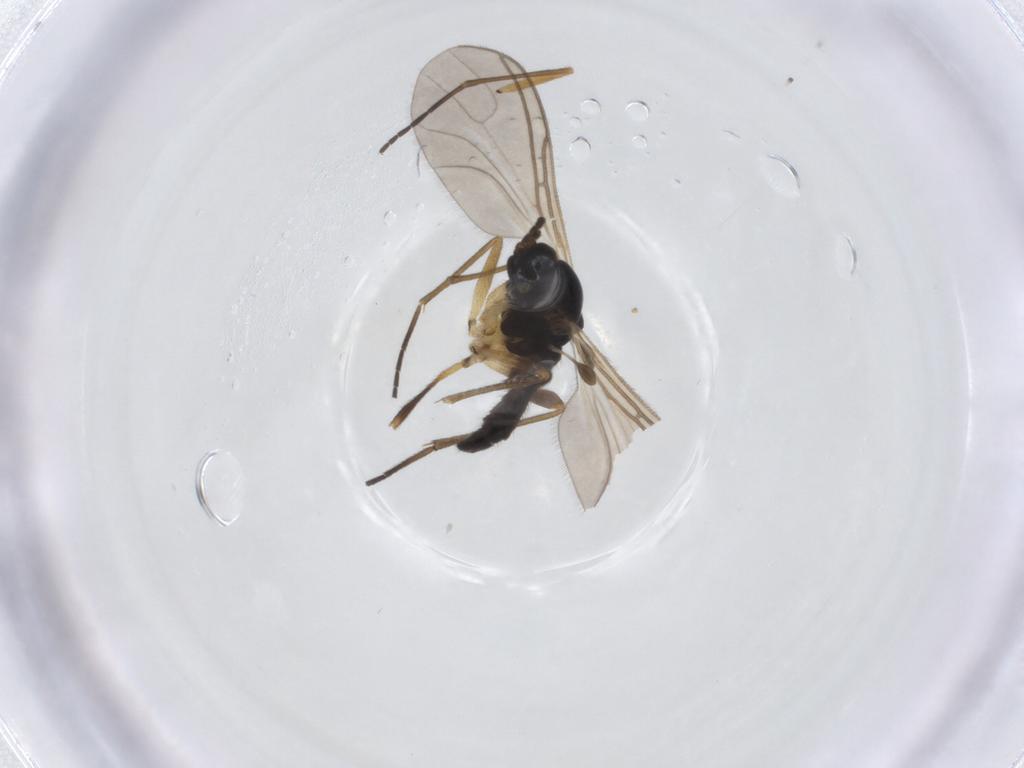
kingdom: Animalia
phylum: Arthropoda
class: Insecta
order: Diptera
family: Sciaridae
